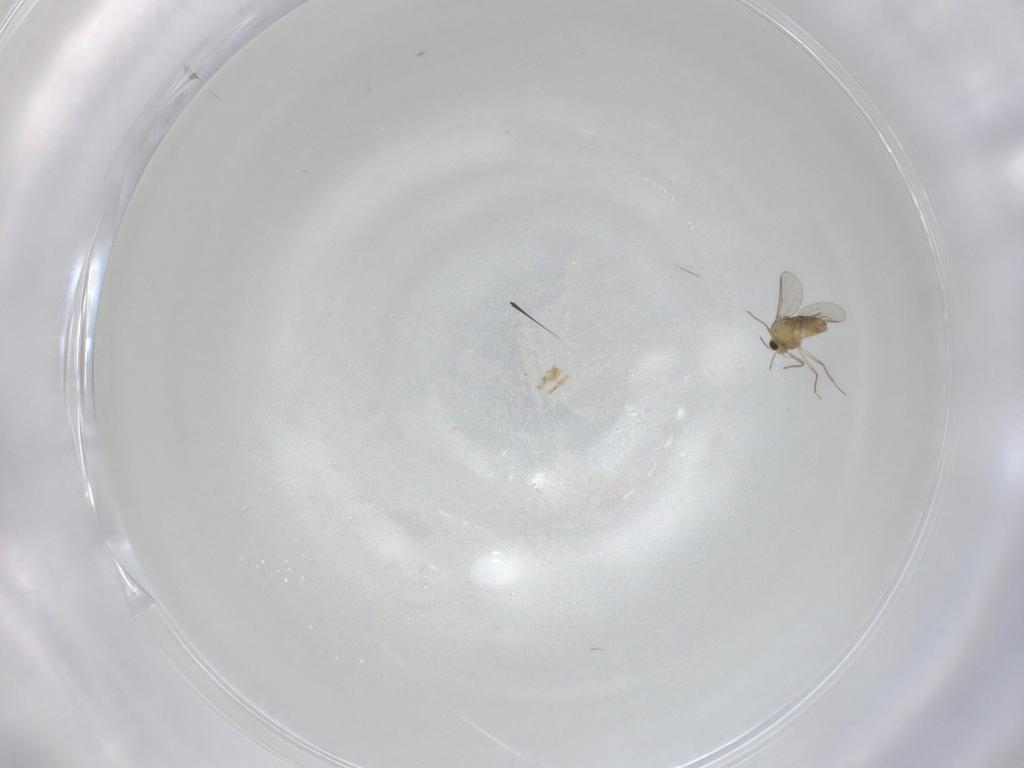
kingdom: Animalia
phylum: Arthropoda
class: Insecta
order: Diptera
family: Chironomidae
